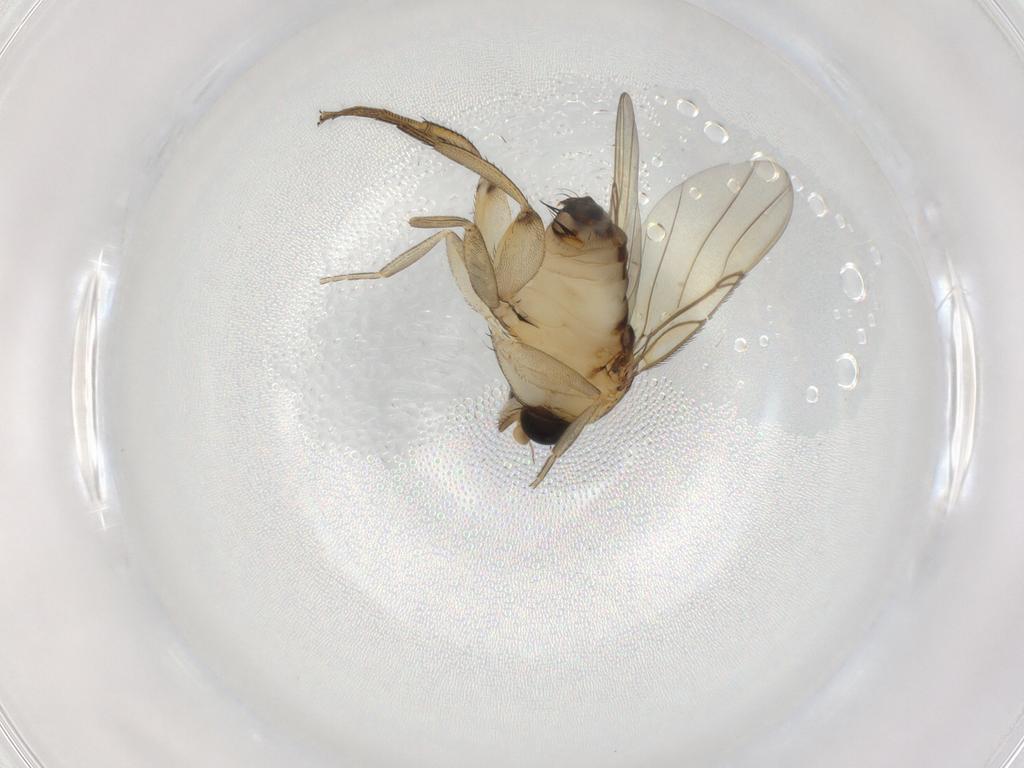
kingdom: Animalia
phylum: Arthropoda
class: Insecta
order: Diptera
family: Phoridae
